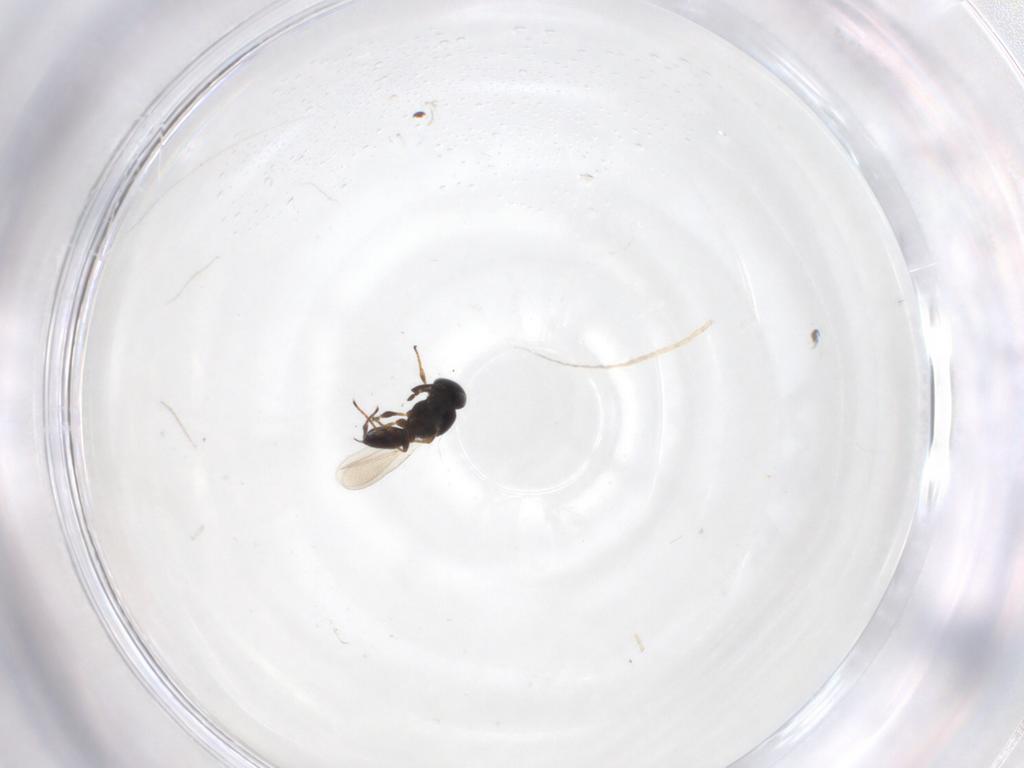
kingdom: Animalia
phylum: Arthropoda
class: Insecta
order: Hymenoptera
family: Platygastridae
